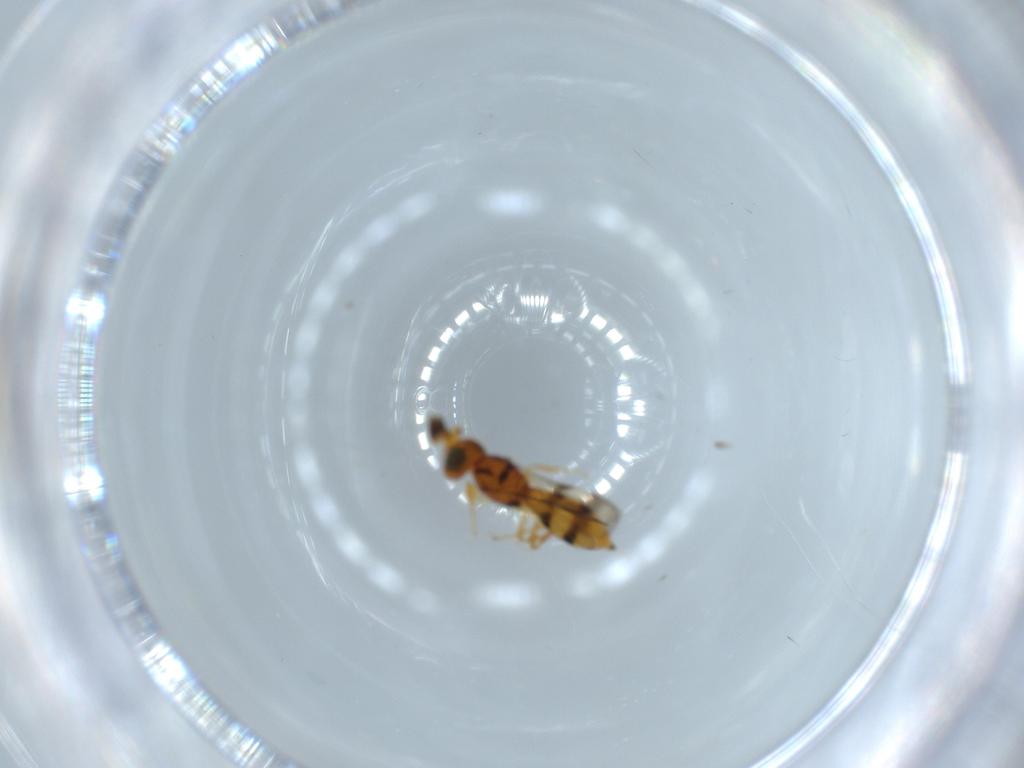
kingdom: Animalia
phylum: Arthropoda
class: Insecta
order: Hymenoptera
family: Scelionidae
